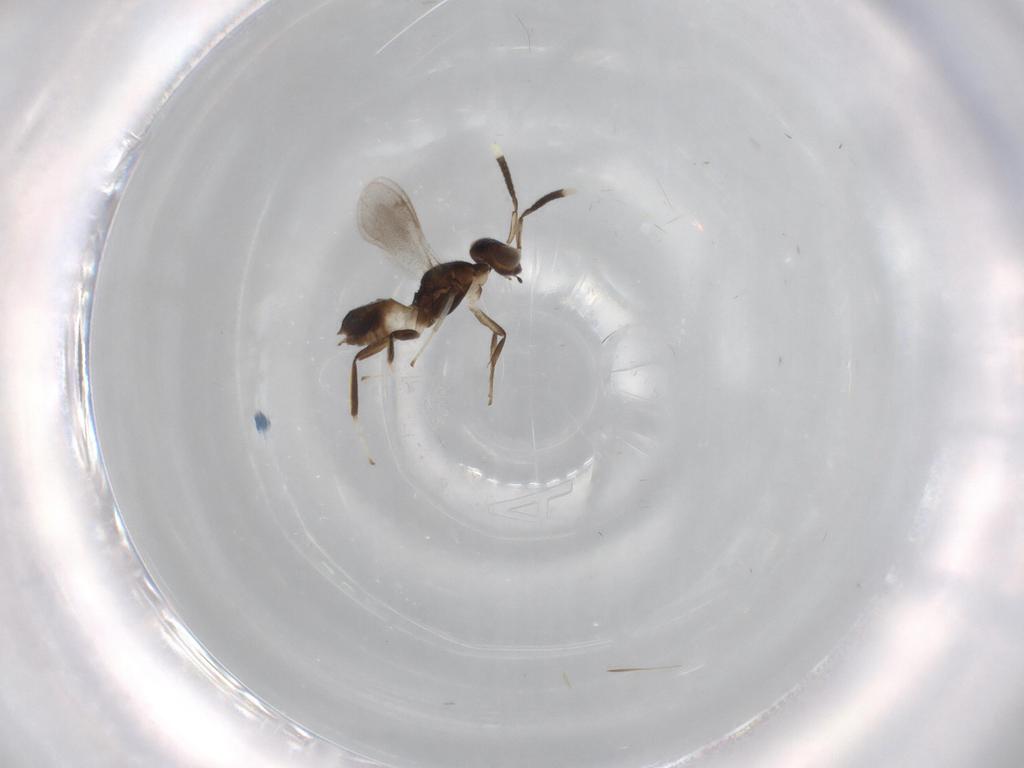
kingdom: Animalia
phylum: Arthropoda
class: Insecta
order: Hymenoptera
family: Eupelmidae
